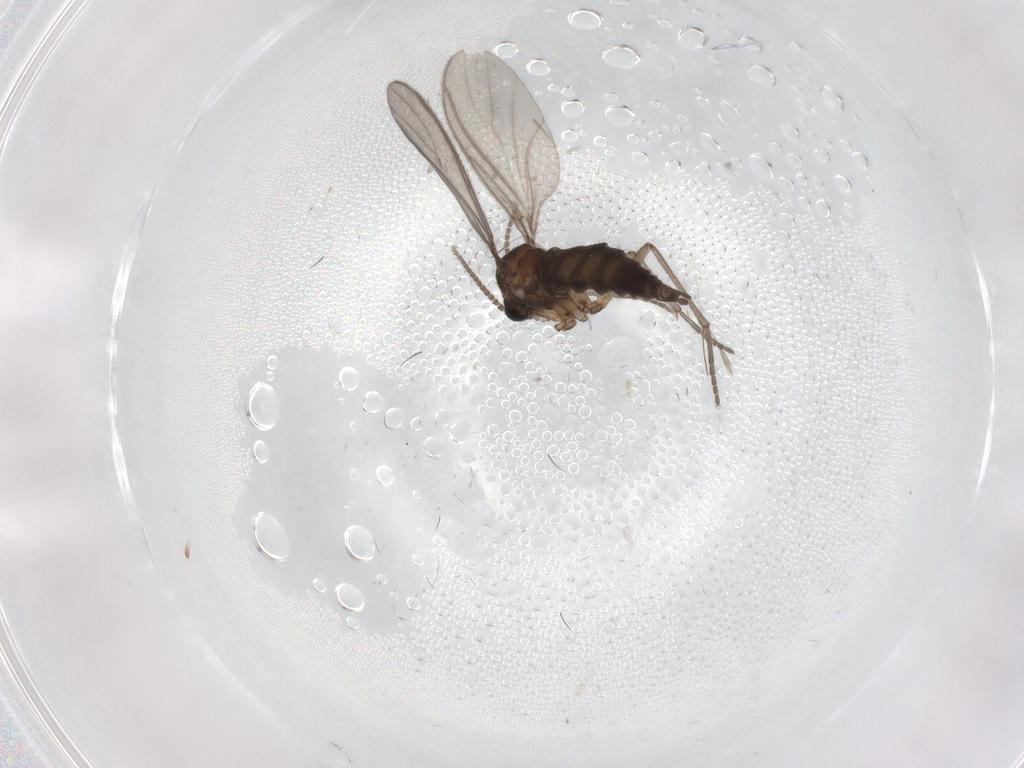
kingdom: Animalia
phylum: Arthropoda
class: Insecta
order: Diptera
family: Sciaridae
